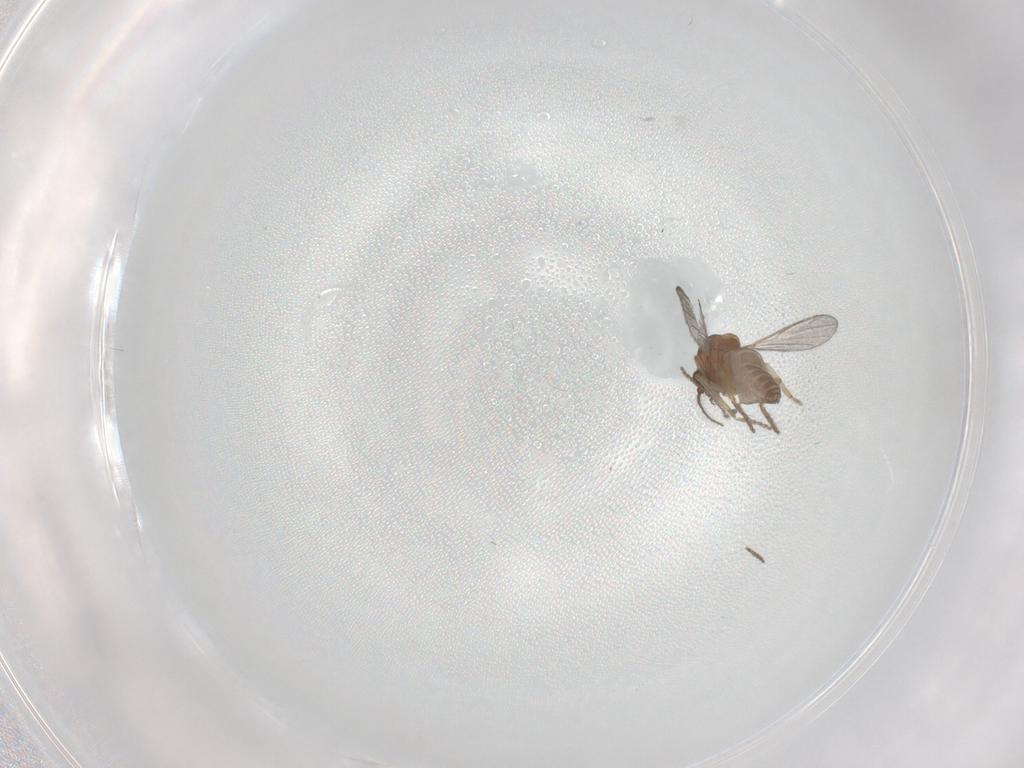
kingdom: Animalia
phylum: Arthropoda
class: Insecta
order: Diptera
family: Ceratopogonidae
